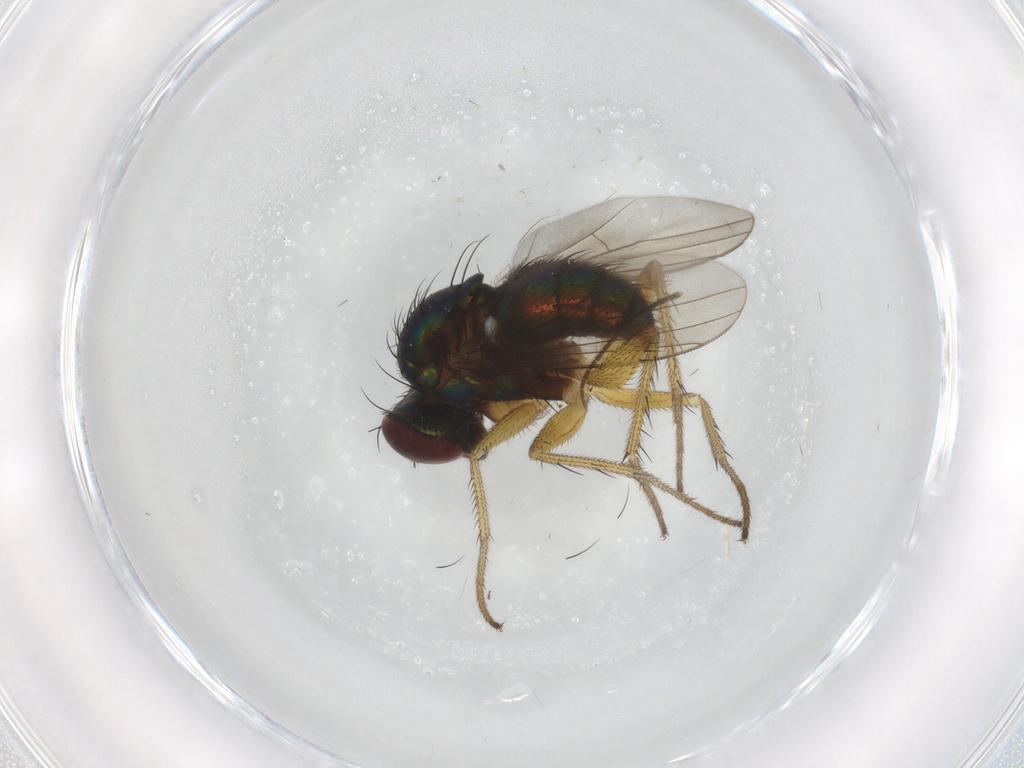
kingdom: Animalia
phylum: Arthropoda
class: Insecta
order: Diptera
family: Dolichopodidae
